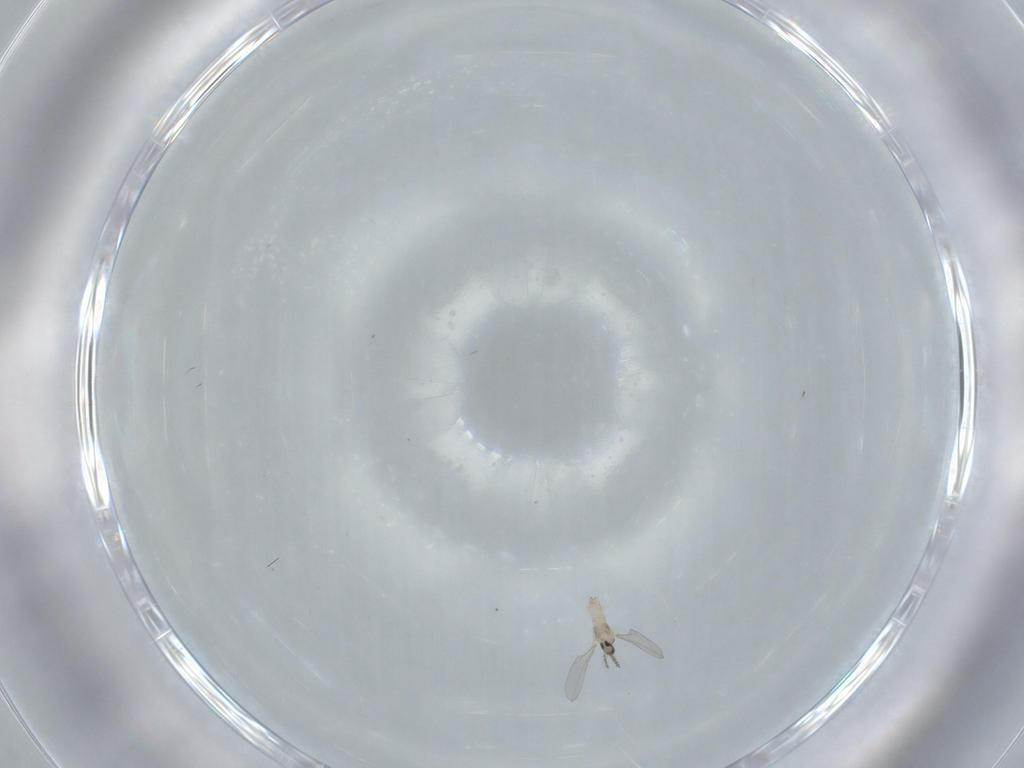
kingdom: Animalia
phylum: Arthropoda
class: Insecta
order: Diptera
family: Cecidomyiidae
